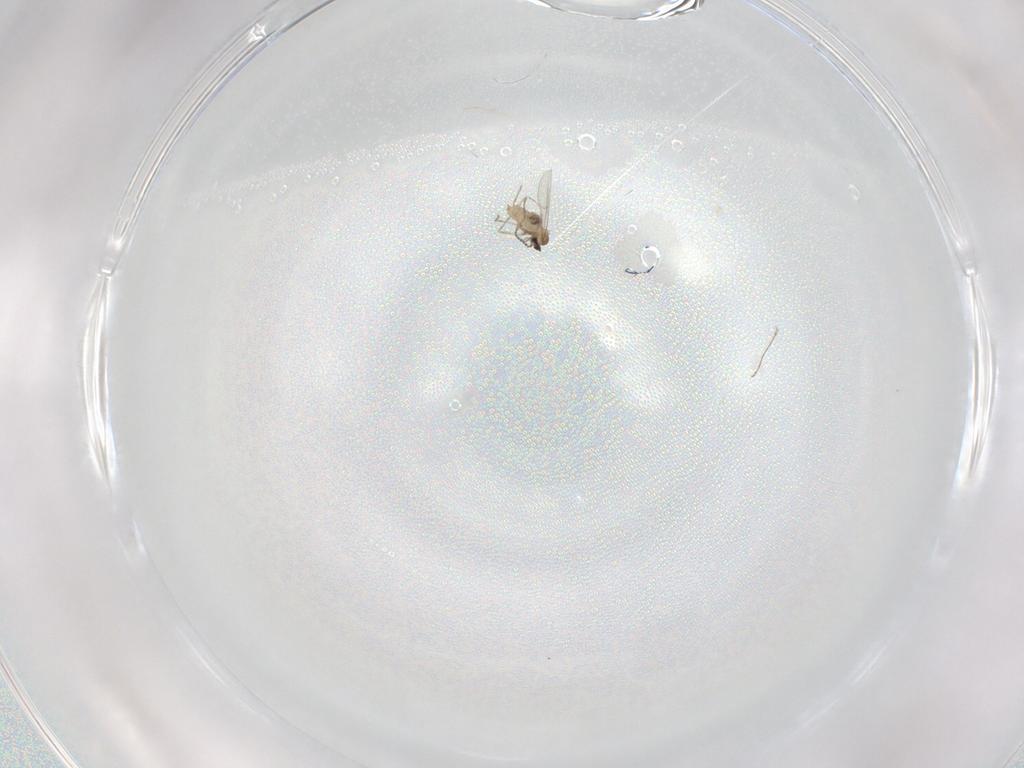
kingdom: Animalia
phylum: Arthropoda
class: Insecta
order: Diptera
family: Cecidomyiidae
